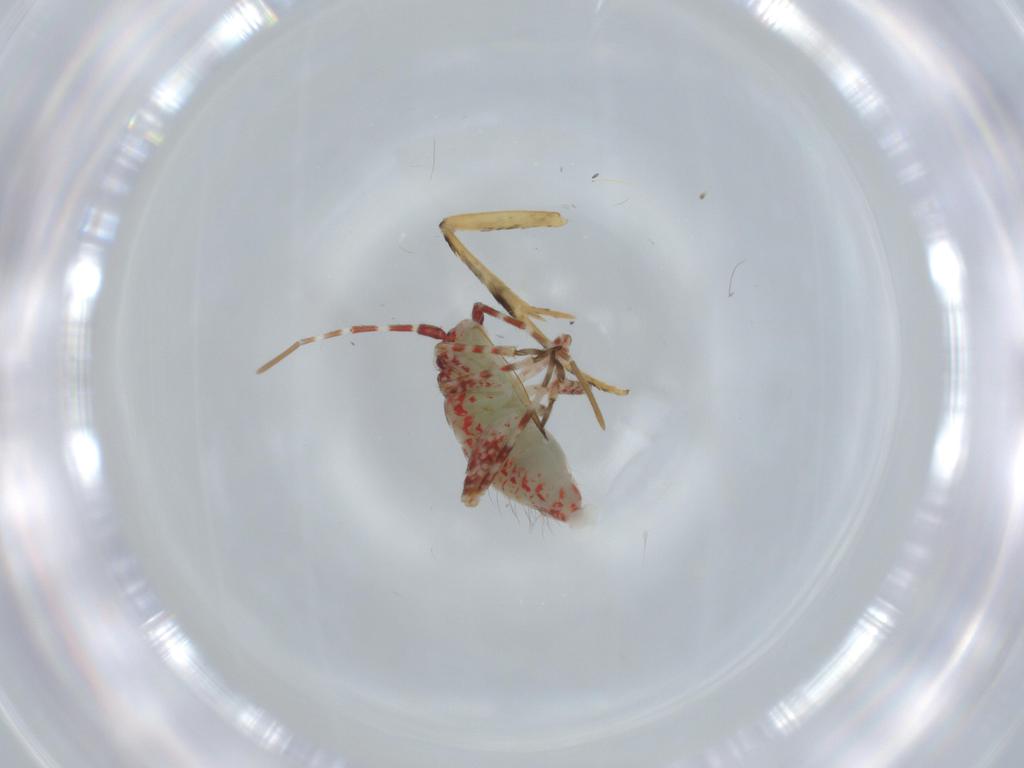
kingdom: Animalia
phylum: Arthropoda
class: Insecta
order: Hemiptera
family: Miridae
